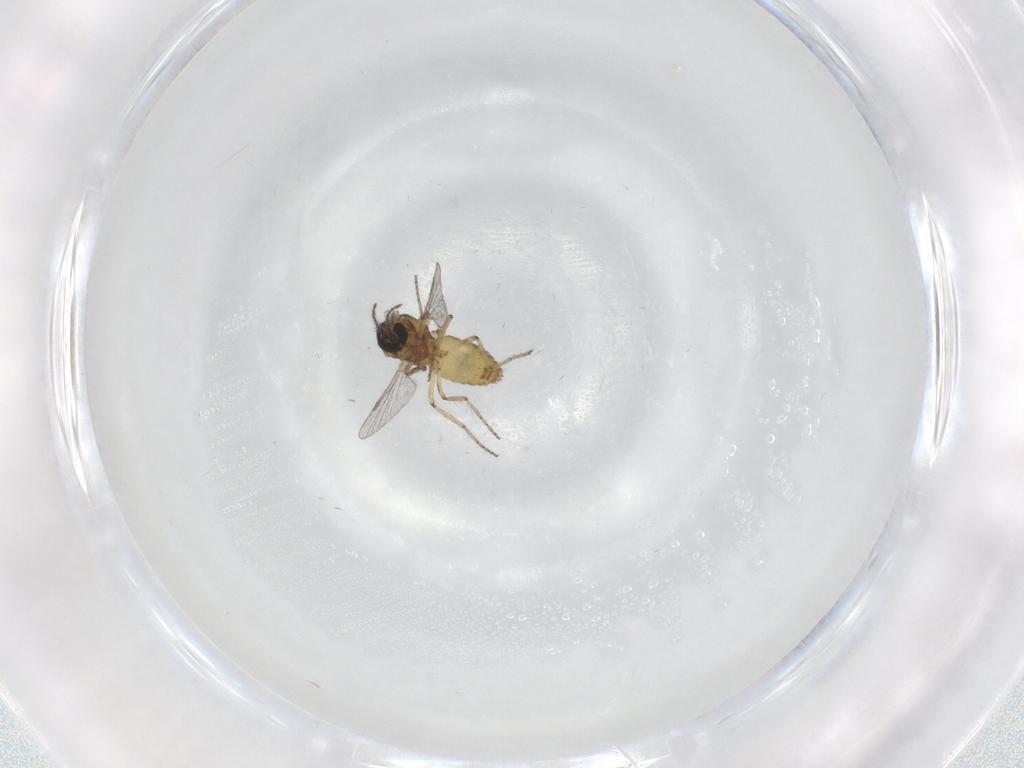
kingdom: Animalia
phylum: Arthropoda
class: Insecta
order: Diptera
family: Ceratopogonidae
